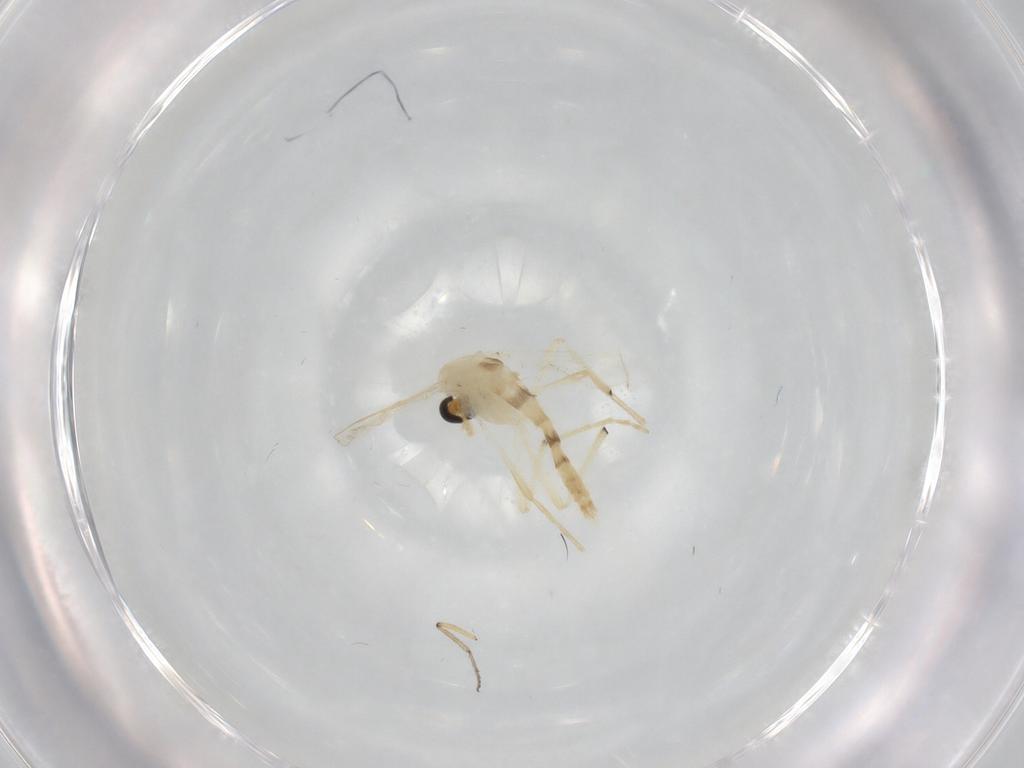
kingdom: Animalia
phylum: Arthropoda
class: Insecta
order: Diptera
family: Chironomidae
